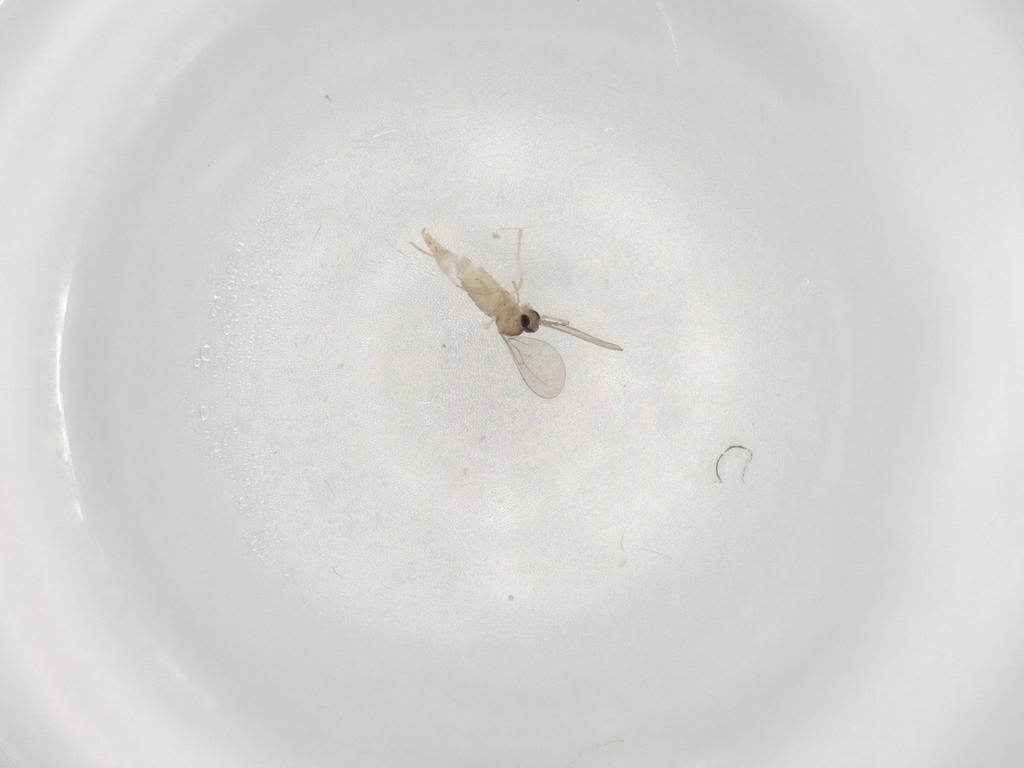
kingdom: Animalia
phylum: Arthropoda
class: Insecta
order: Diptera
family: Cecidomyiidae
